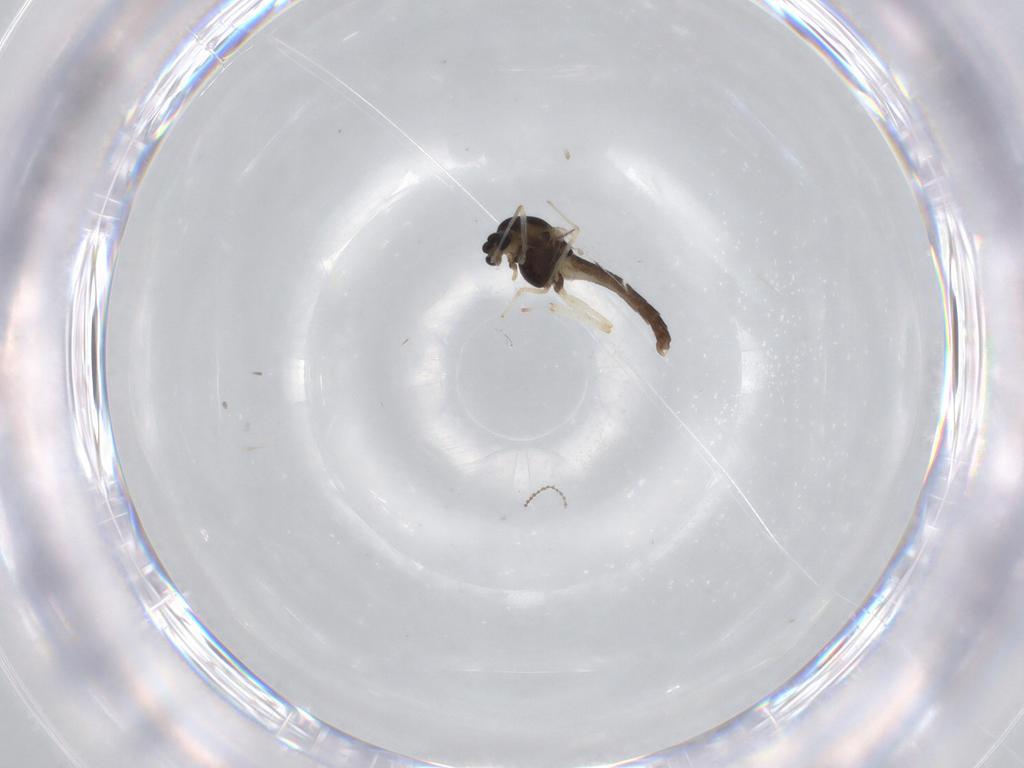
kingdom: Animalia
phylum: Arthropoda
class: Insecta
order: Diptera
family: Chironomidae
